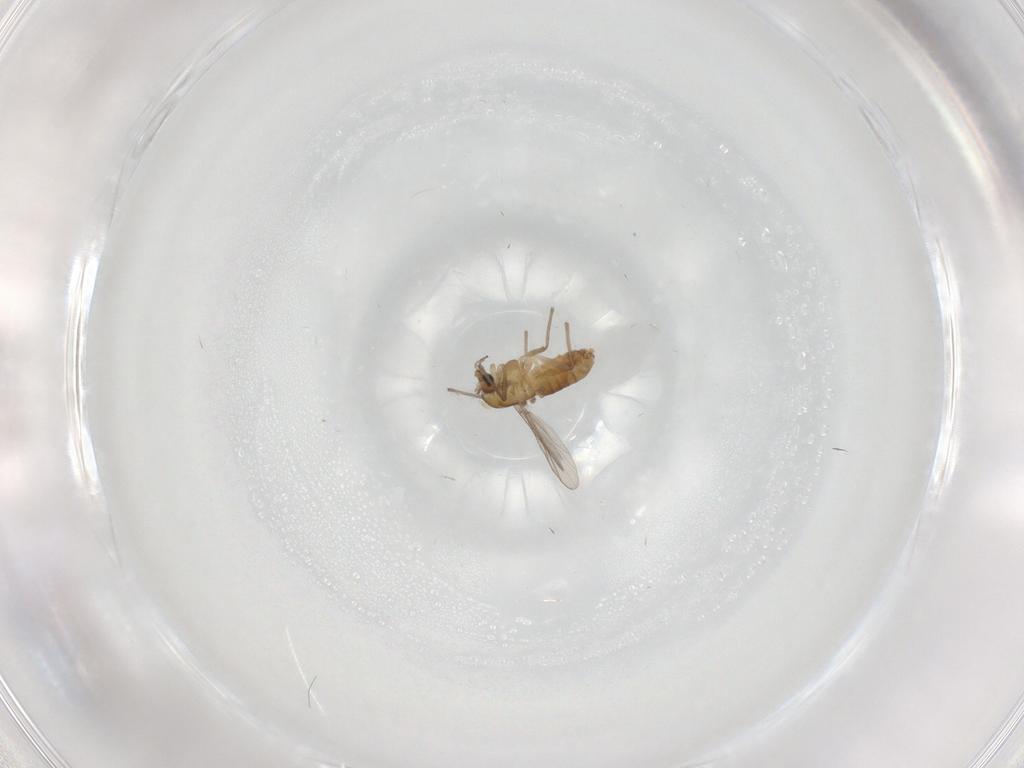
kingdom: Animalia
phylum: Arthropoda
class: Insecta
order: Diptera
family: Chironomidae
